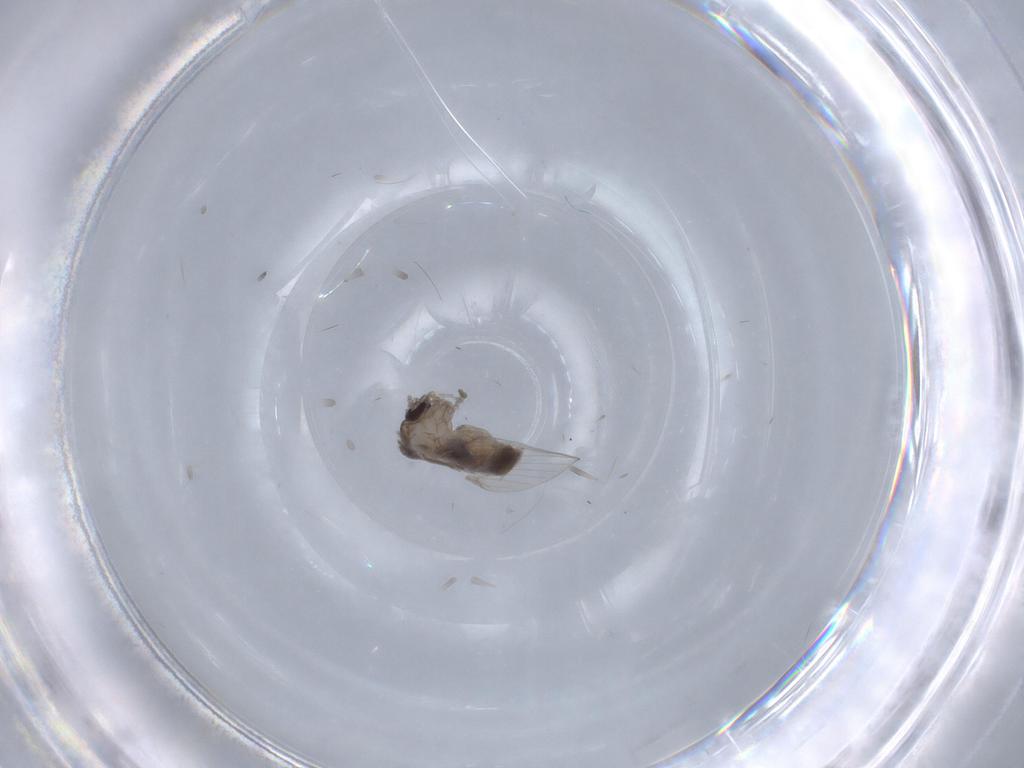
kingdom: Animalia
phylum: Arthropoda
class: Insecta
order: Diptera
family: Psychodidae
